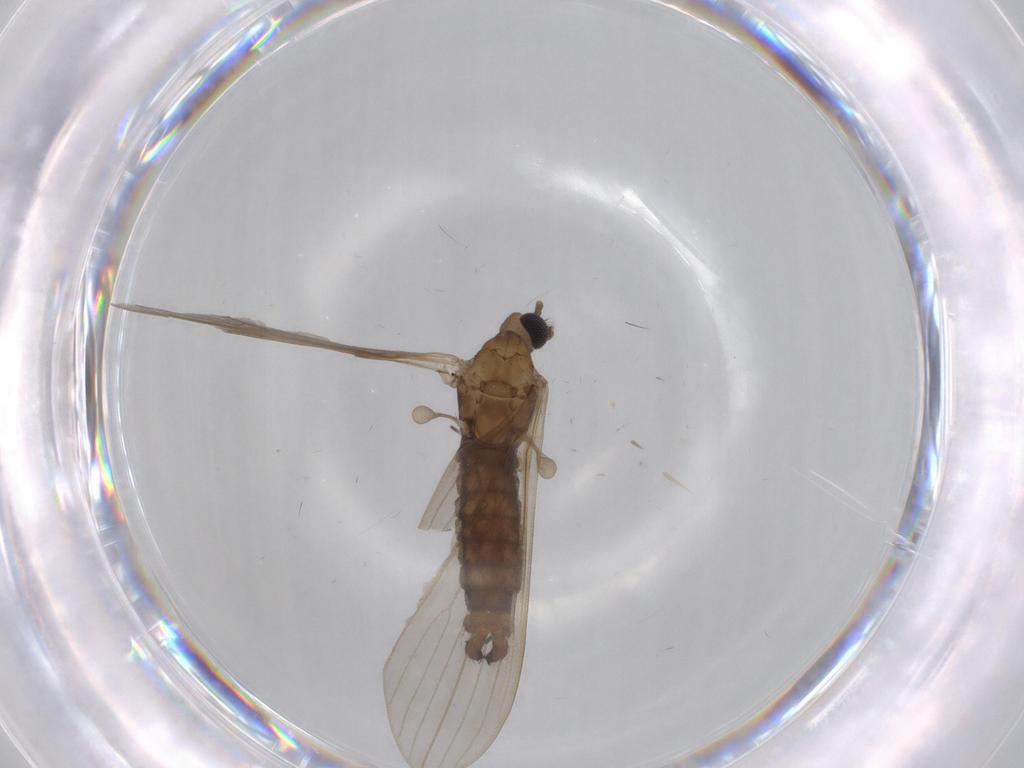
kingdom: Animalia
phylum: Arthropoda
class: Insecta
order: Diptera
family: Limoniidae
